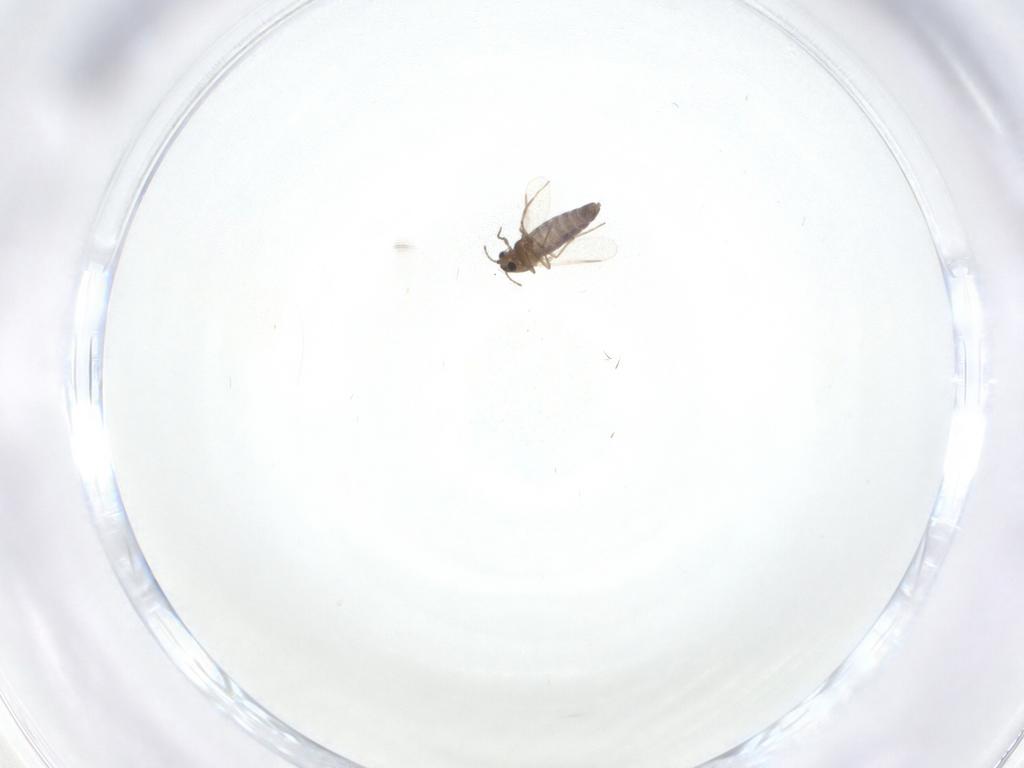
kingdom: Animalia
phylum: Arthropoda
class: Insecta
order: Diptera
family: Chironomidae
